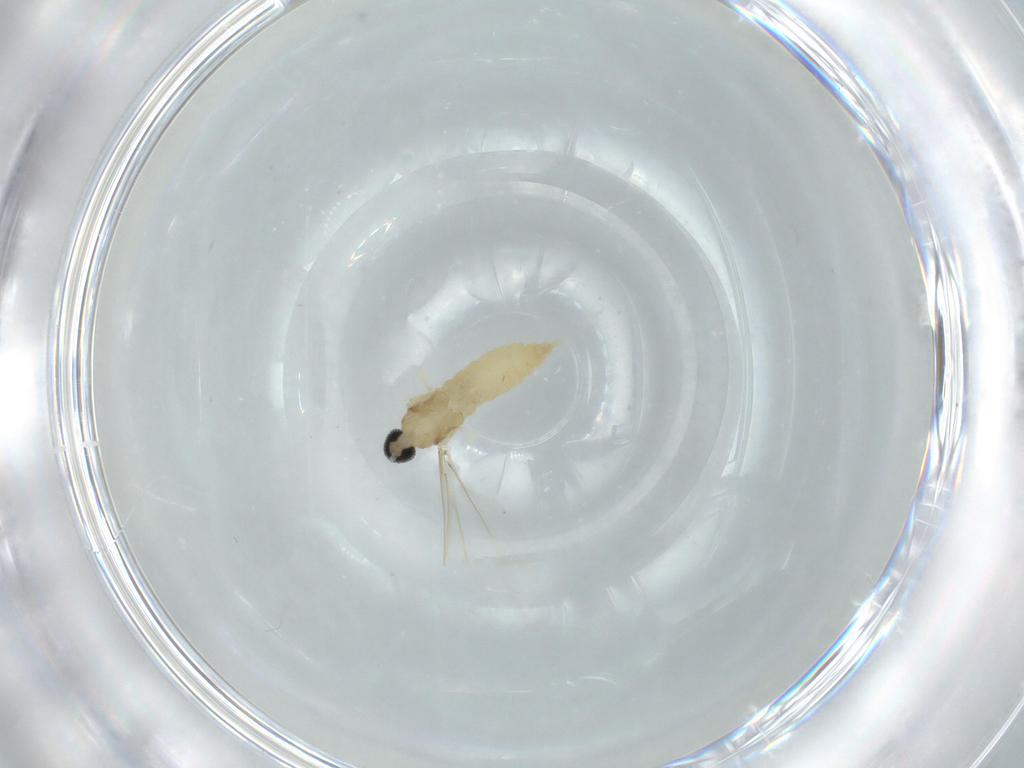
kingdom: Animalia
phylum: Arthropoda
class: Insecta
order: Diptera
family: Cecidomyiidae
